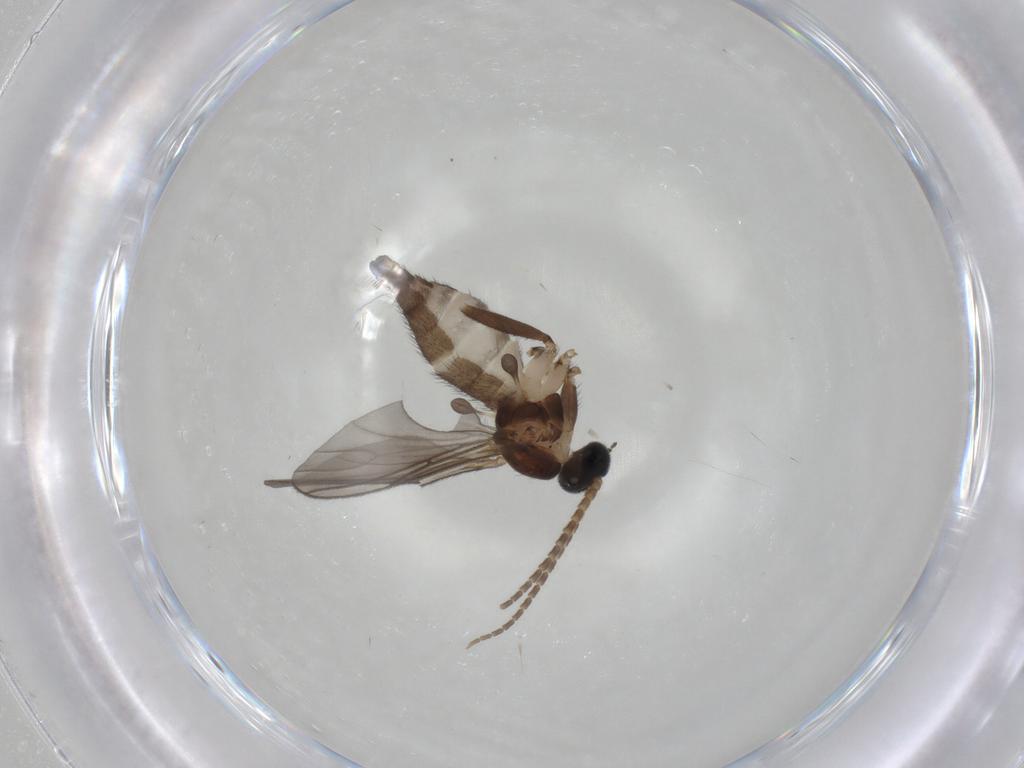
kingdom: Animalia
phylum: Arthropoda
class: Insecta
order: Diptera
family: Sciaridae
